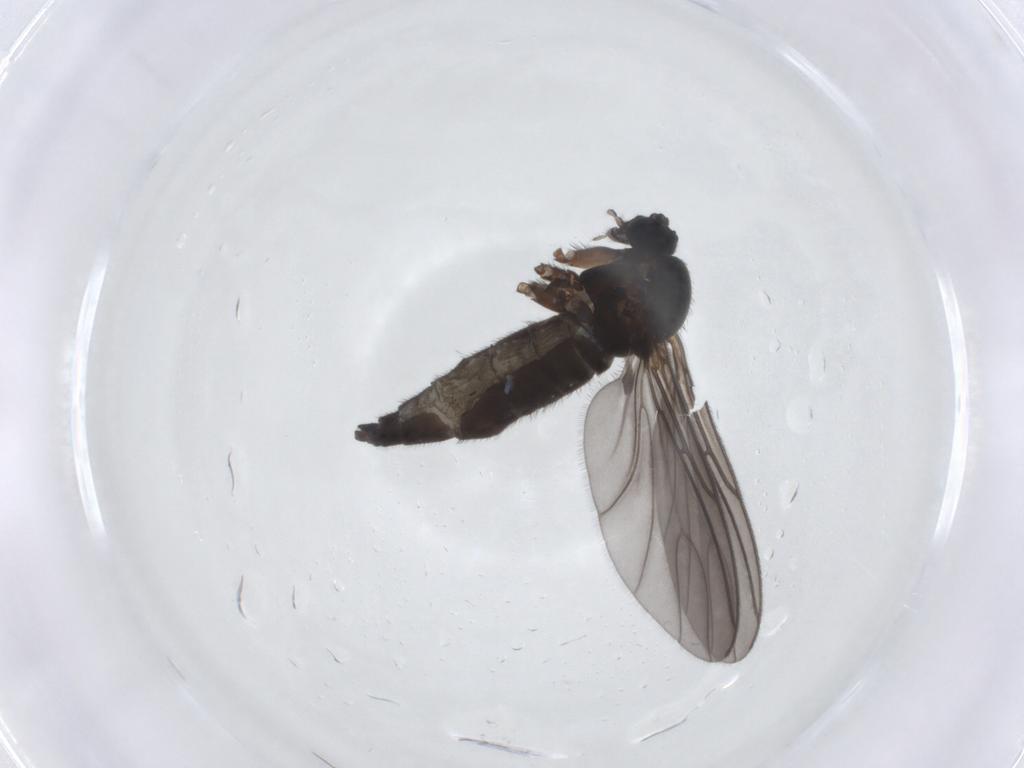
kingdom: Animalia
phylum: Arthropoda
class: Insecta
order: Diptera
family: Sciaridae
